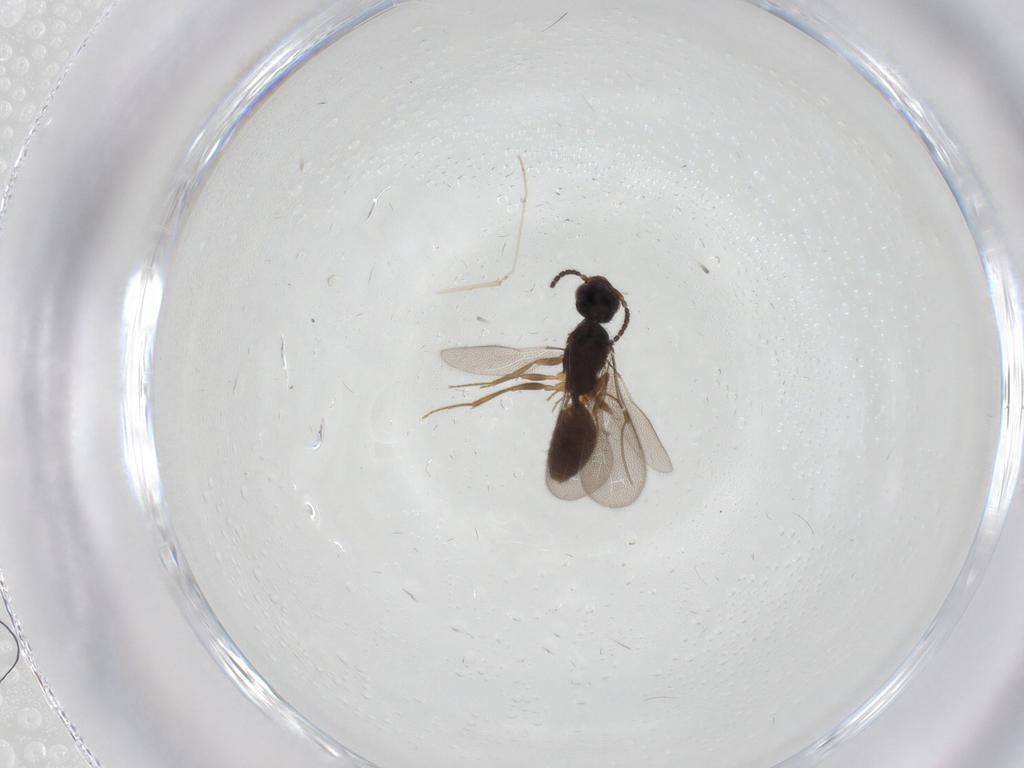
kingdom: Animalia
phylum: Arthropoda
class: Insecta
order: Hymenoptera
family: Bethylidae
